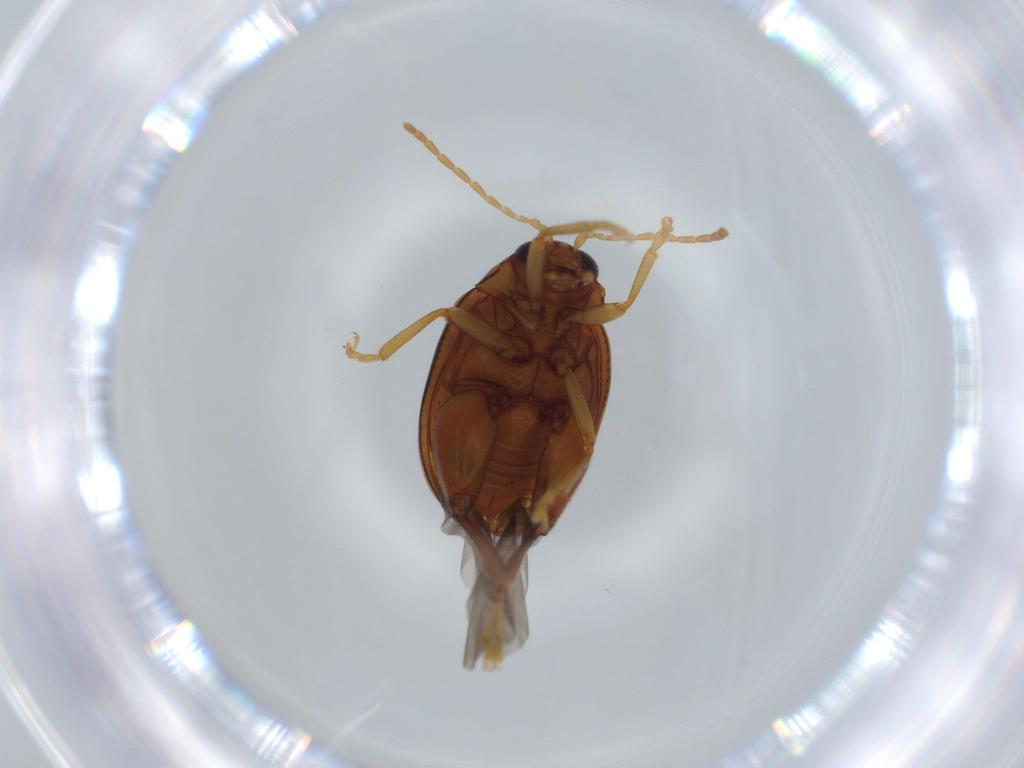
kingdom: Animalia
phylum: Arthropoda
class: Insecta
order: Coleoptera
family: Chrysomelidae
